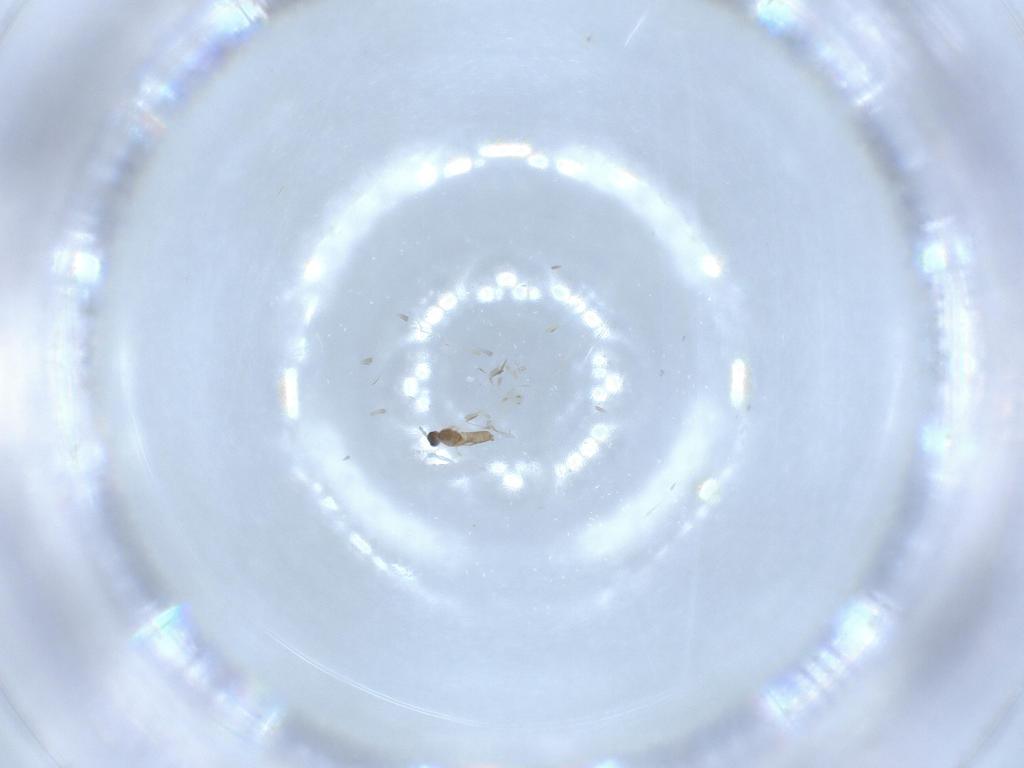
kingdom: Animalia
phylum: Arthropoda
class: Insecta
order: Diptera
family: Cecidomyiidae
